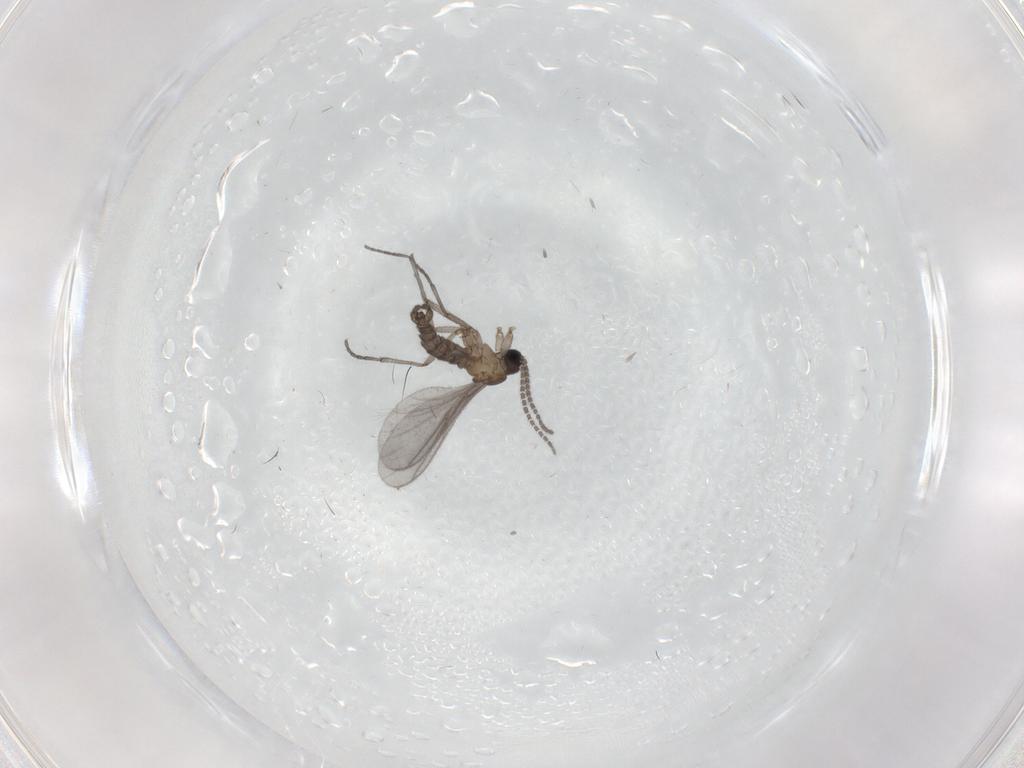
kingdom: Animalia
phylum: Arthropoda
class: Insecta
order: Diptera
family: Sciaridae
